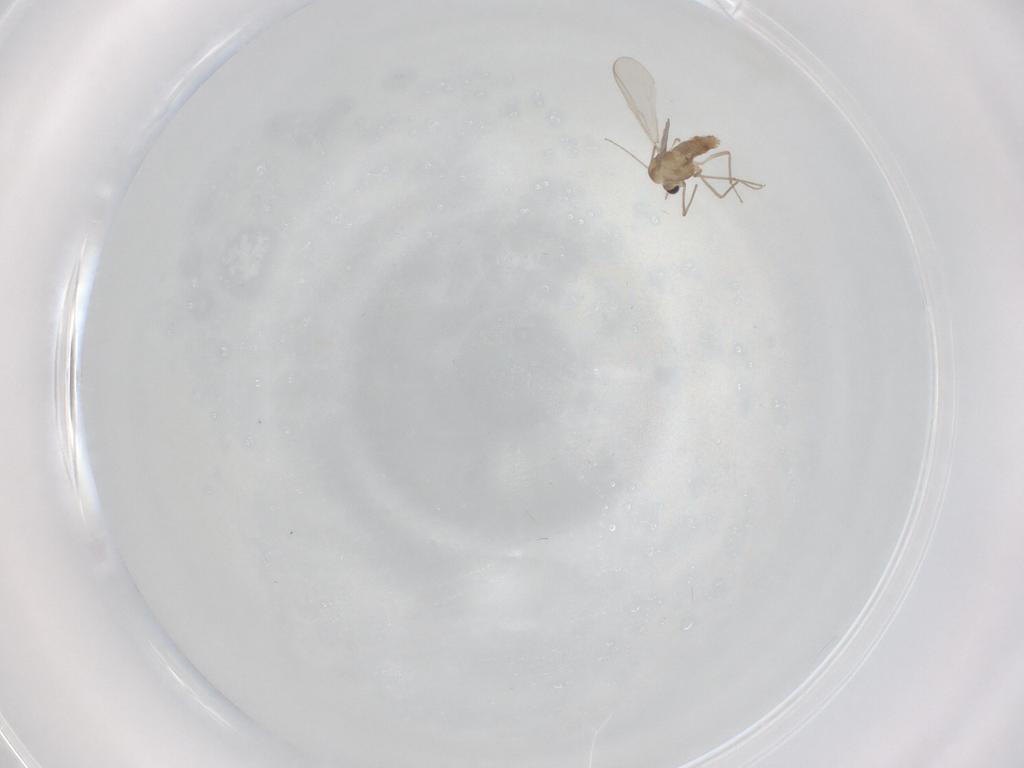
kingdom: Animalia
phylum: Arthropoda
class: Insecta
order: Diptera
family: Chironomidae
